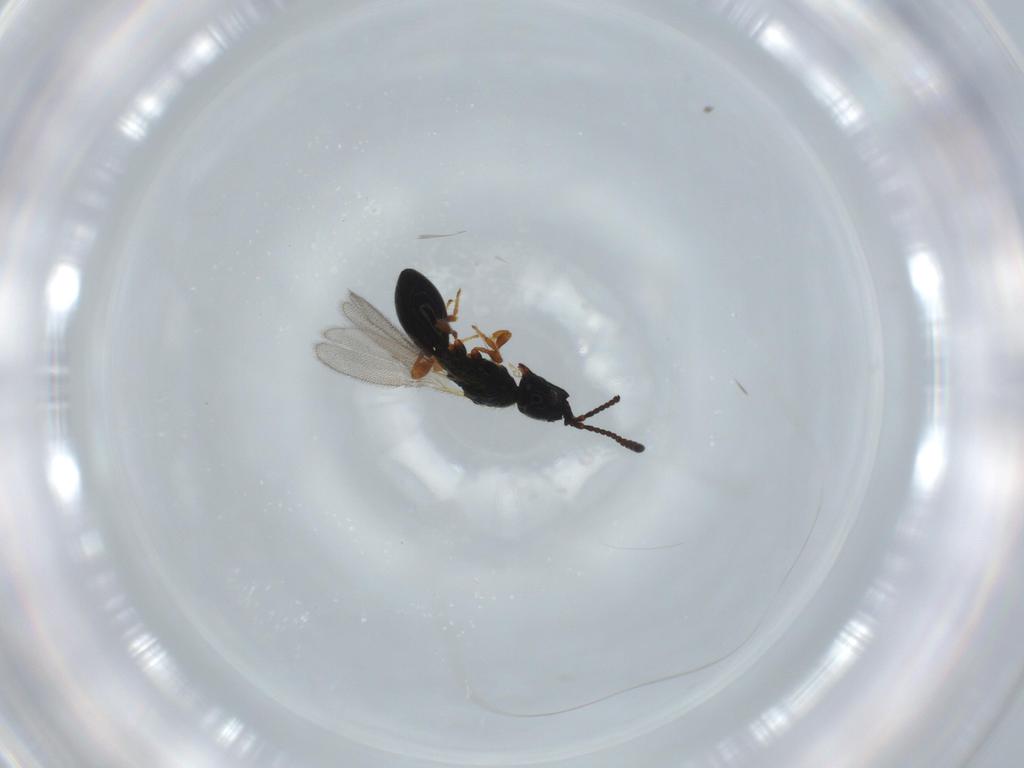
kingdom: Animalia
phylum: Arthropoda
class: Insecta
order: Hymenoptera
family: Diapriidae
